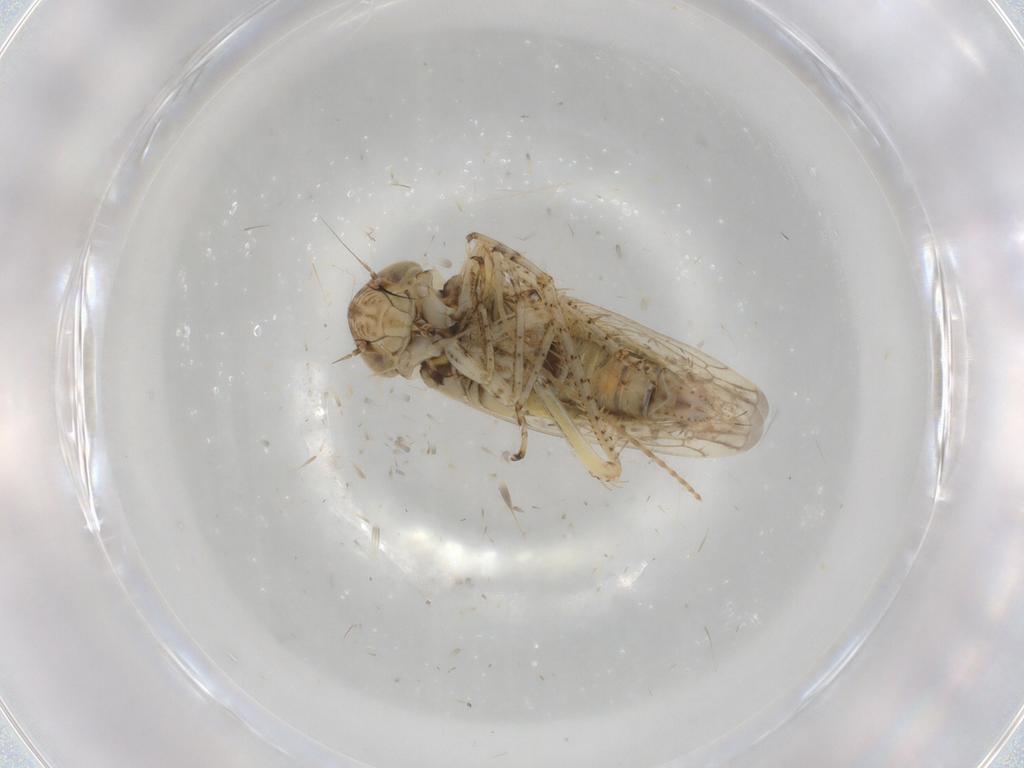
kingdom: Animalia
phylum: Arthropoda
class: Insecta
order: Hemiptera
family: Cicadellidae
